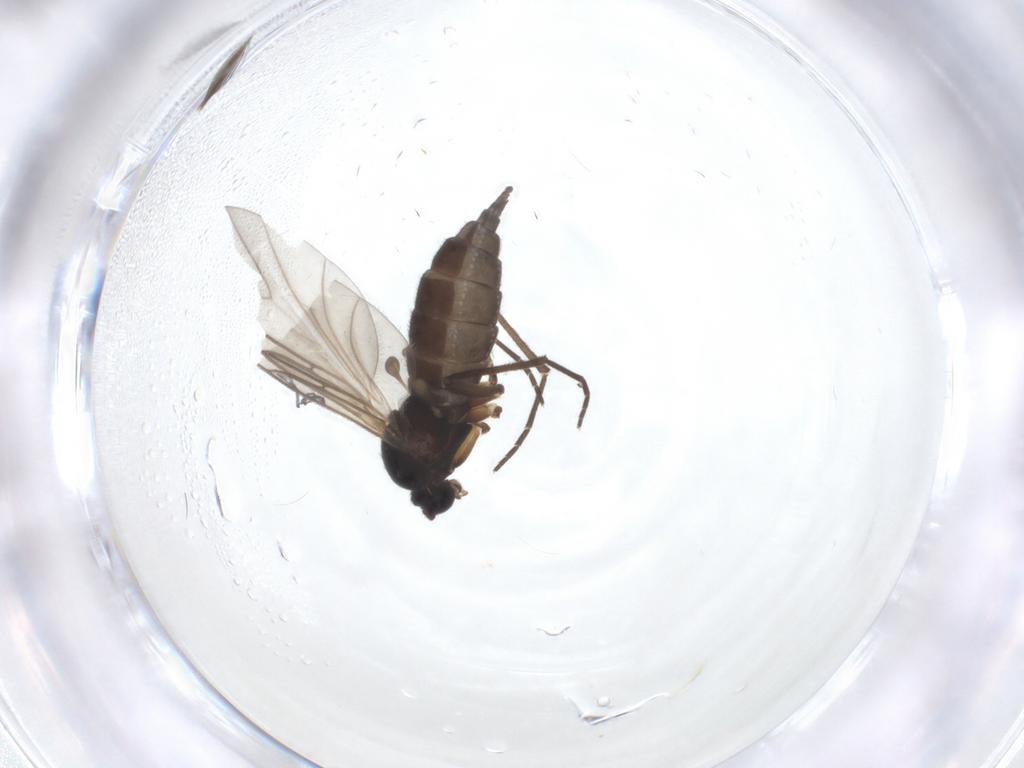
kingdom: Animalia
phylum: Arthropoda
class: Insecta
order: Diptera
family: Sciaridae
